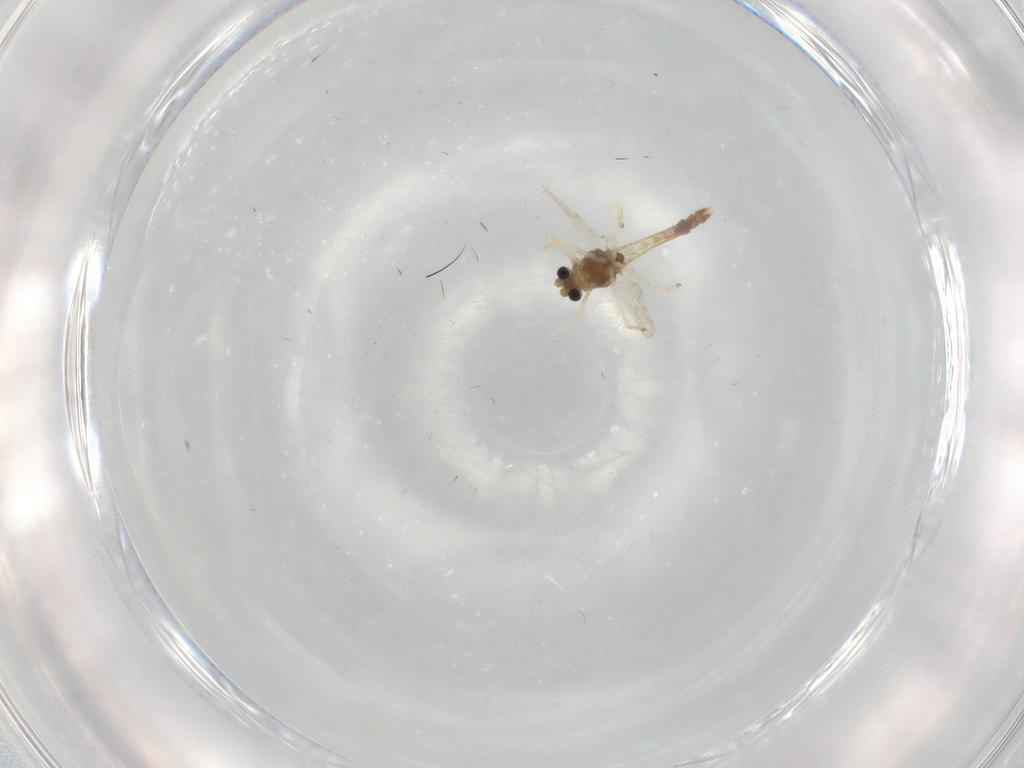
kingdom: Animalia
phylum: Arthropoda
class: Insecta
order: Diptera
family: Chironomidae
